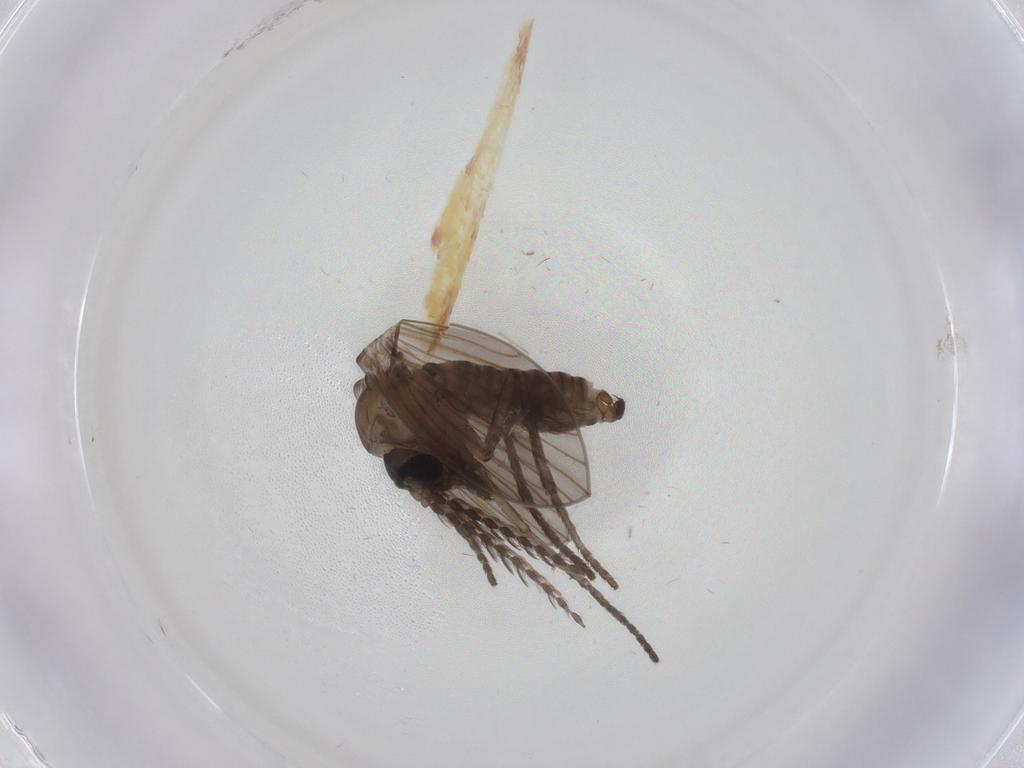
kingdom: Animalia
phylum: Arthropoda
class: Insecta
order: Diptera
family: Psychodidae
